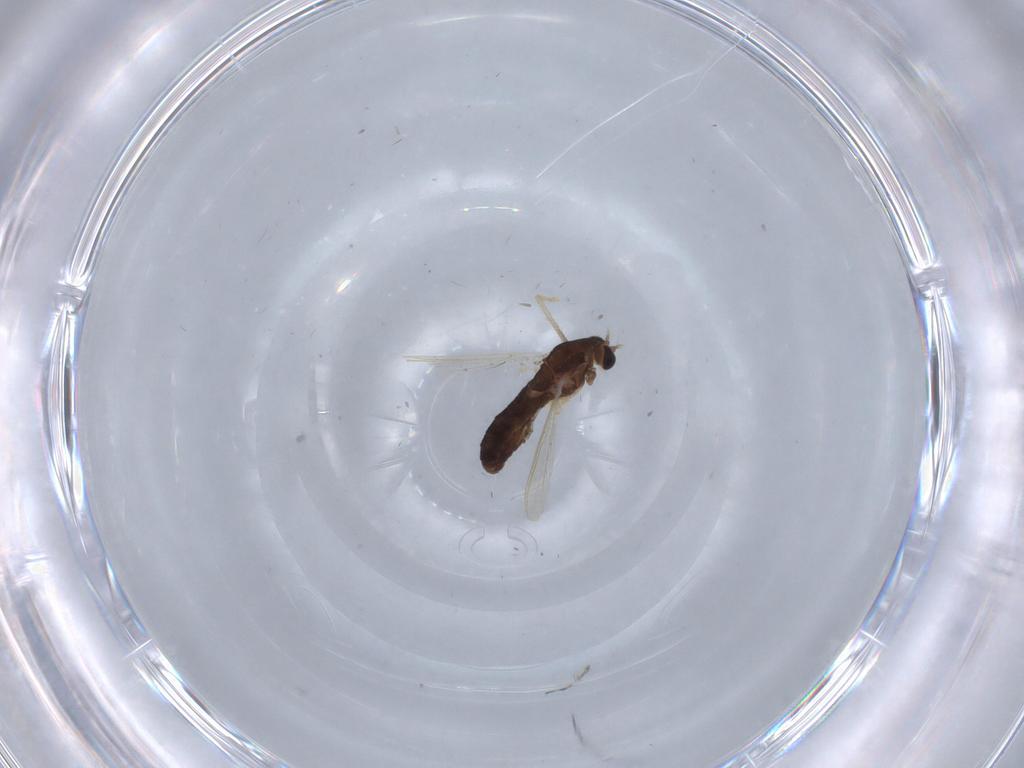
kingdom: Animalia
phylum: Arthropoda
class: Insecta
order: Diptera
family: Chironomidae
